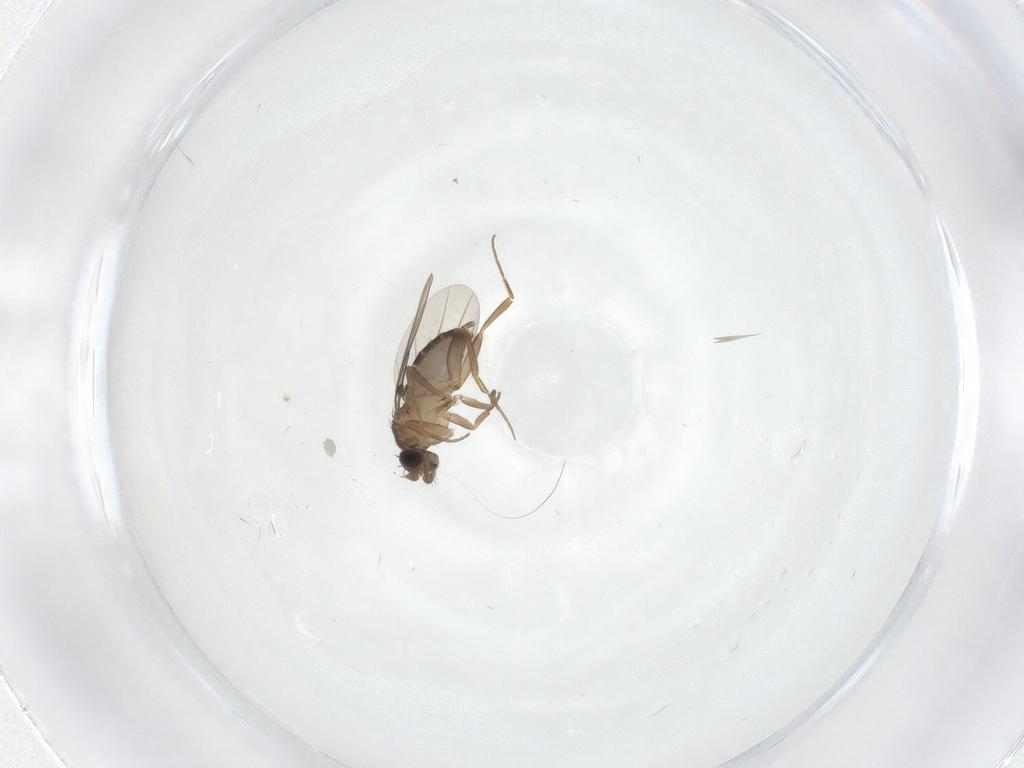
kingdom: Animalia
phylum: Arthropoda
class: Insecta
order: Diptera
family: Phoridae
